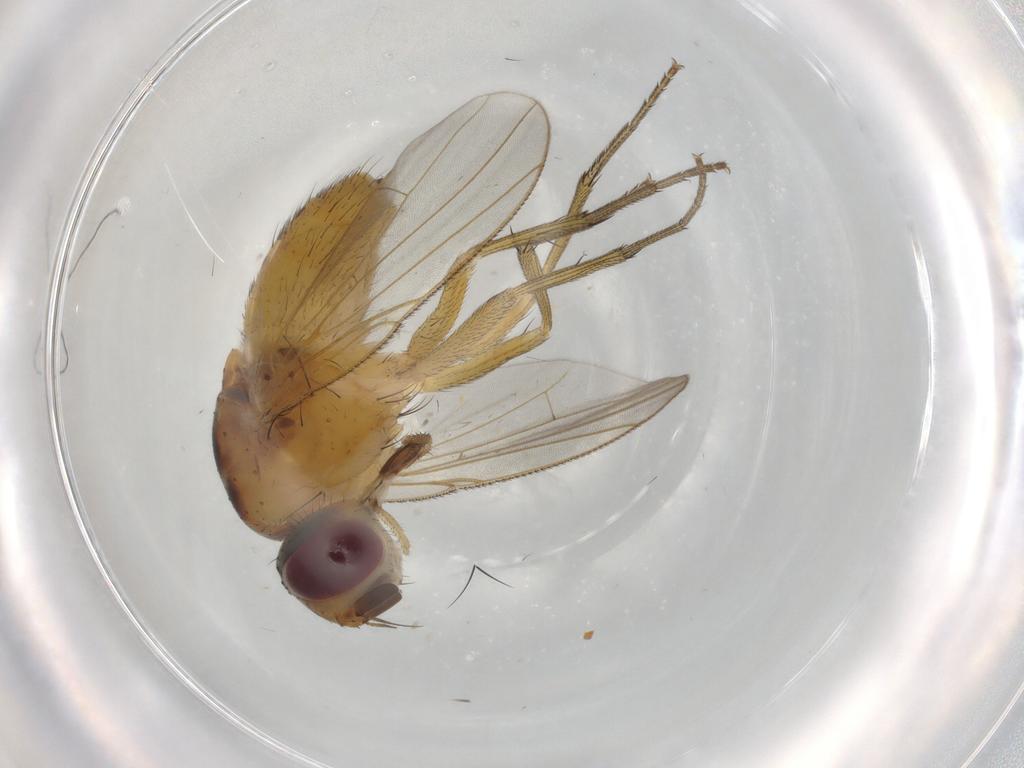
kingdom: Animalia
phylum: Arthropoda
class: Insecta
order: Diptera
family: Muscidae
